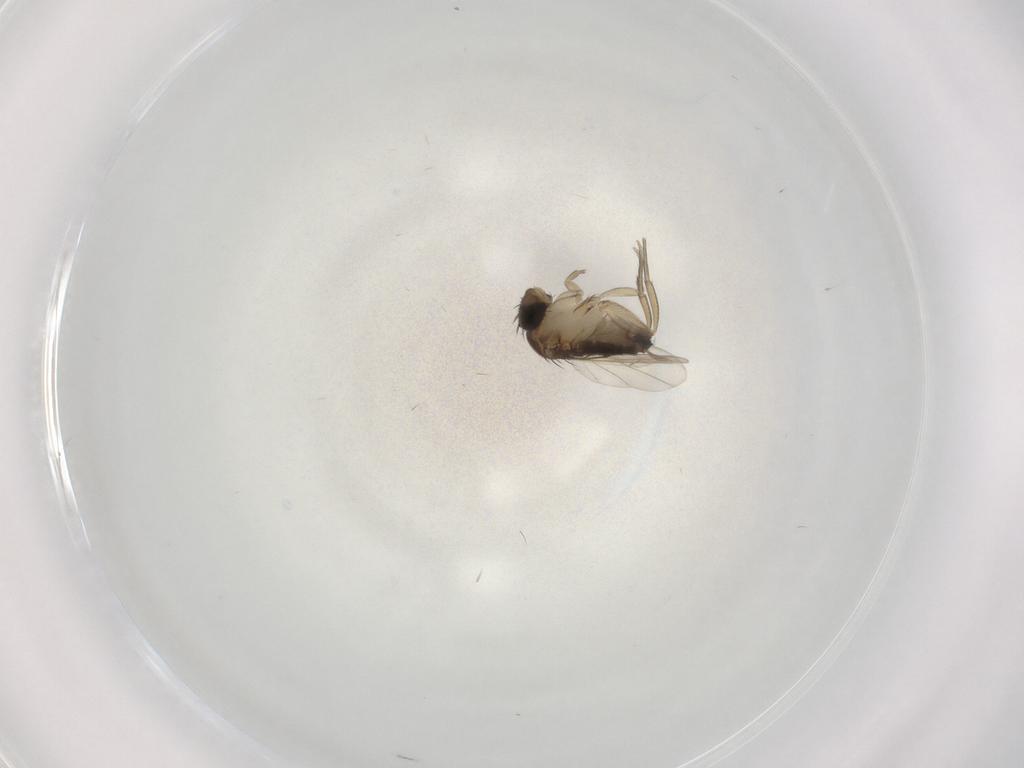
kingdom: Animalia
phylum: Arthropoda
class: Insecta
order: Diptera
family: Phoridae
